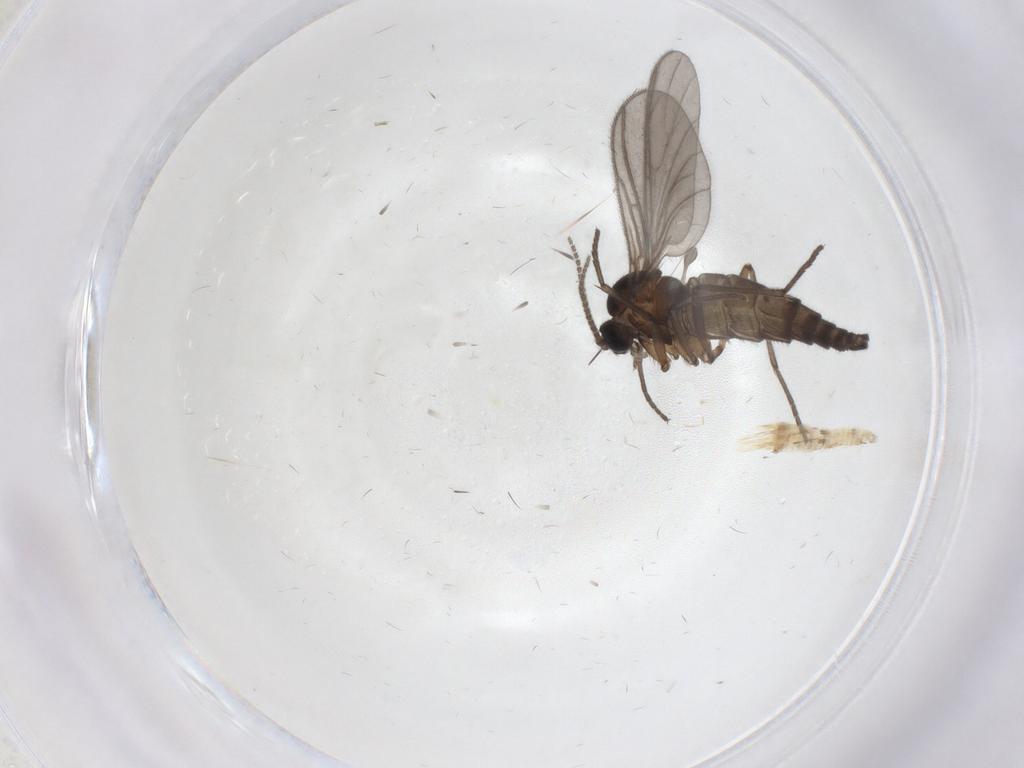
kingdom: Animalia
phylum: Arthropoda
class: Insecta
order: Diptera
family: Sciaridae
